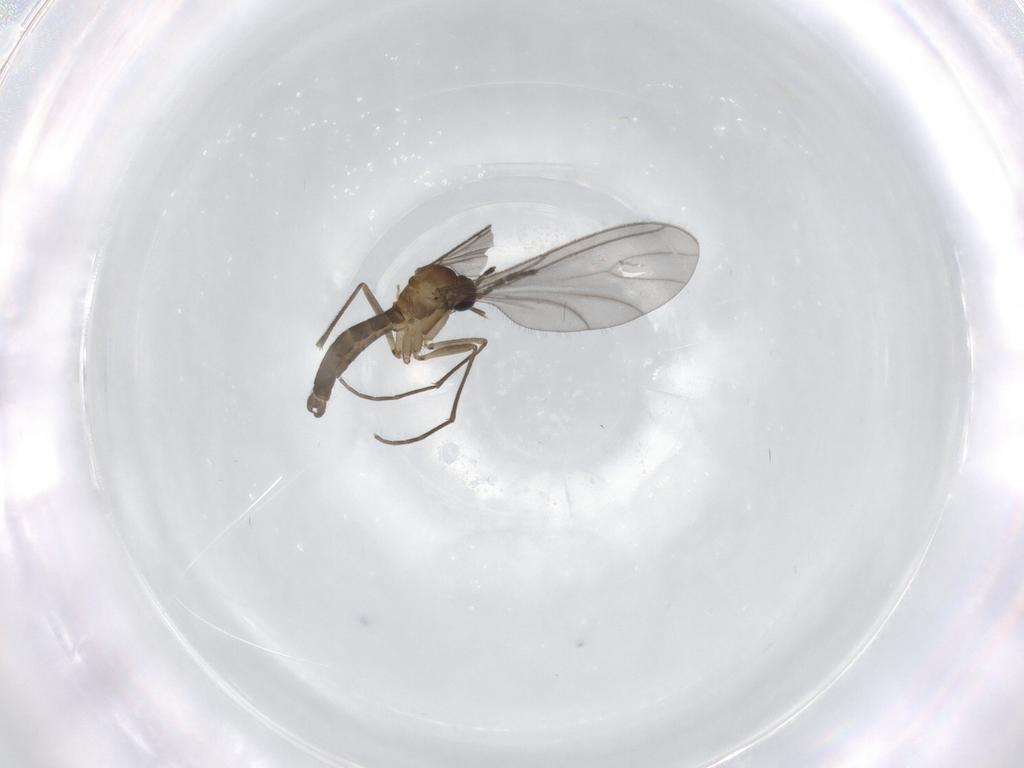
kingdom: Animalia
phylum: Arthropoda
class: Insecta
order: Diptera
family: Sciaridae
